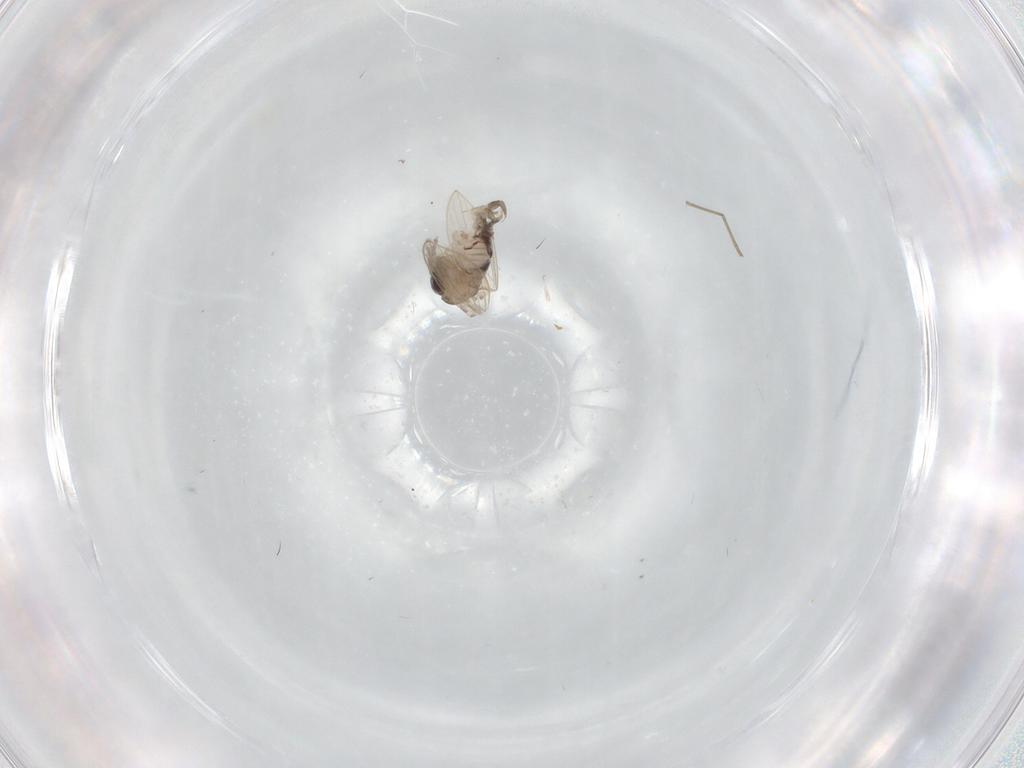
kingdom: Animalia
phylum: Arthropoda
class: Insecta
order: Diptera
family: Psychodidae
